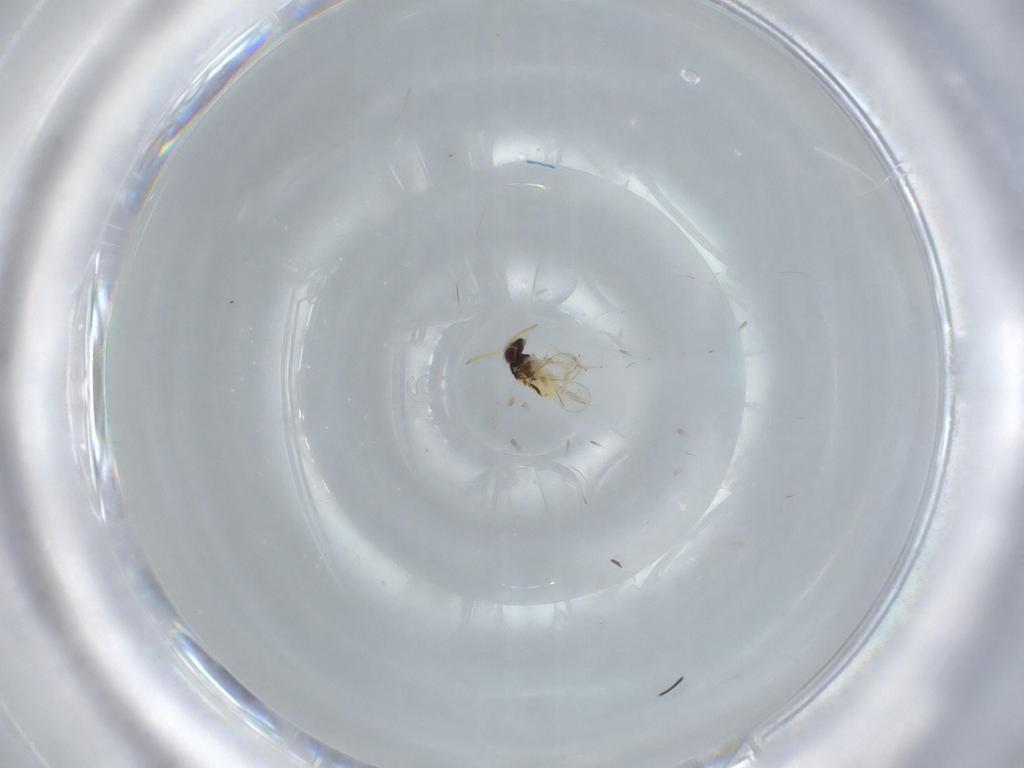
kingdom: Animalia
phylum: Arthropoda
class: Insecta
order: Hymenoptera
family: Aphelinidae
